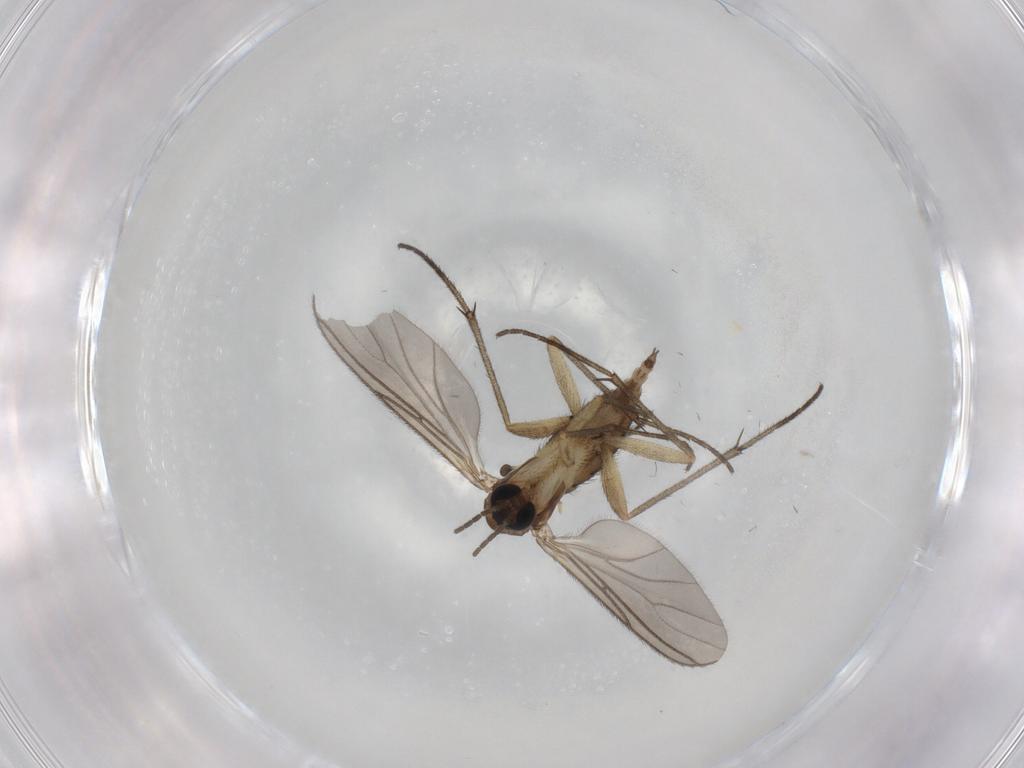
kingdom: Animalia
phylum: Arthropoda
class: Insecta
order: Diptera
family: Sciaridae
